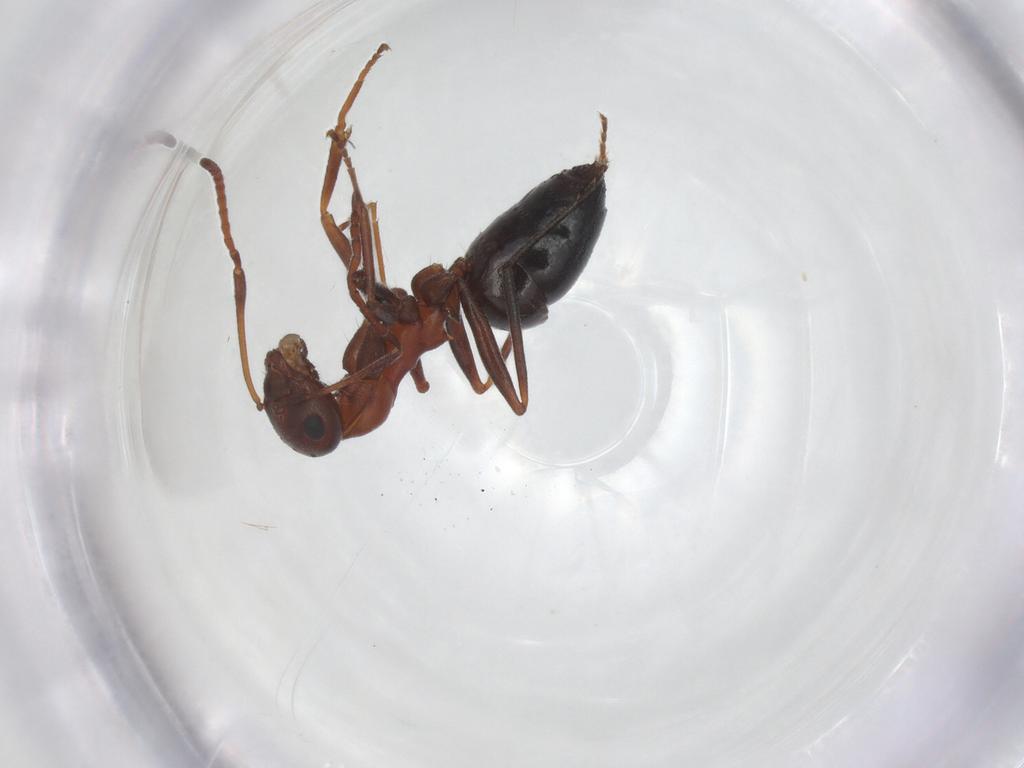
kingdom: Animalia
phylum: Arthropoda
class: Insecta
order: Hymenoptera
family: Formicidae
